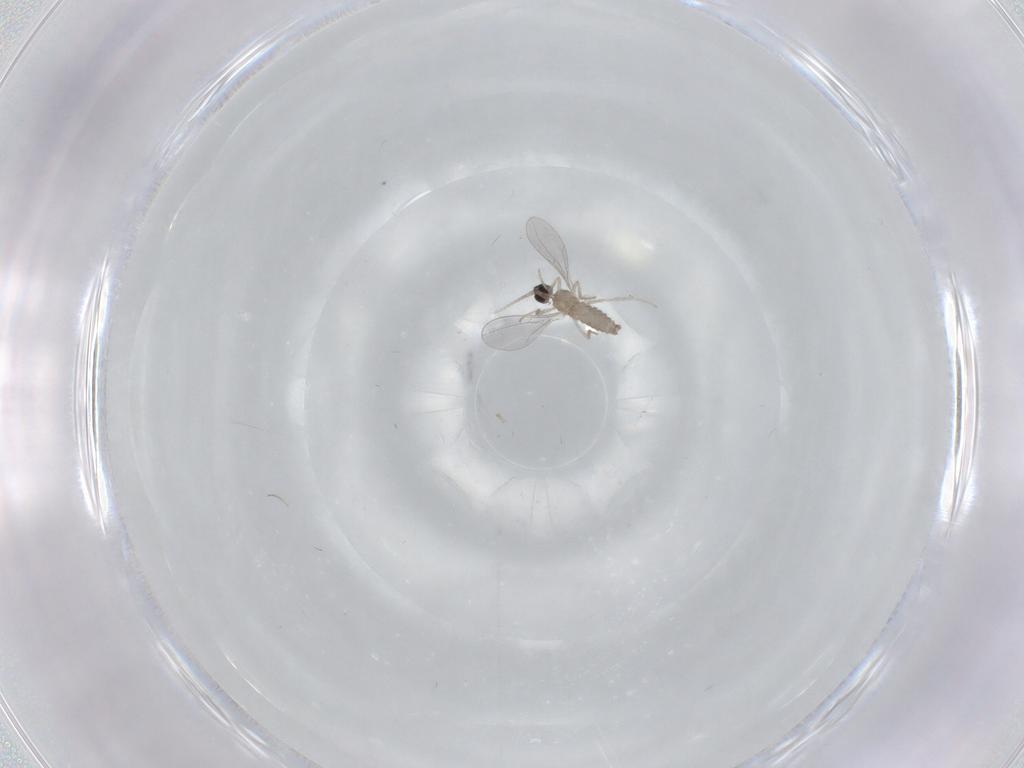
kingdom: Animalia
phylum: Arthropoda
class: Insecta
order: Diptera
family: Cecidomyiidae
